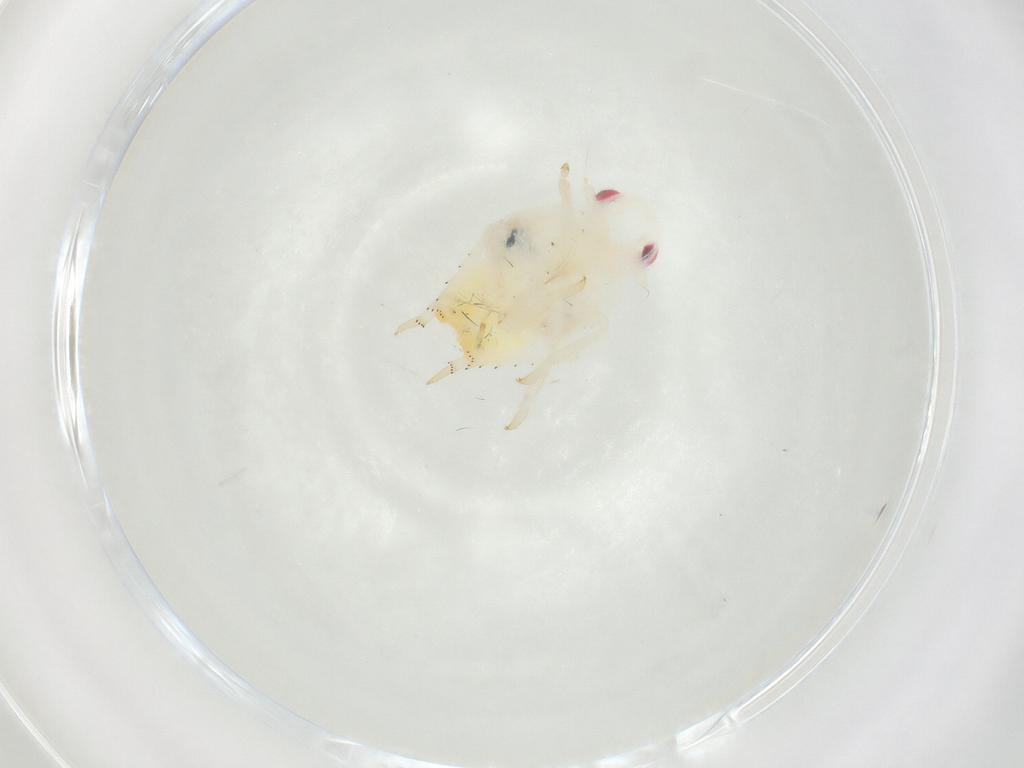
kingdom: Animalia
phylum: Arthropoda
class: Insecta
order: Hemiptera
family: Flatidae
